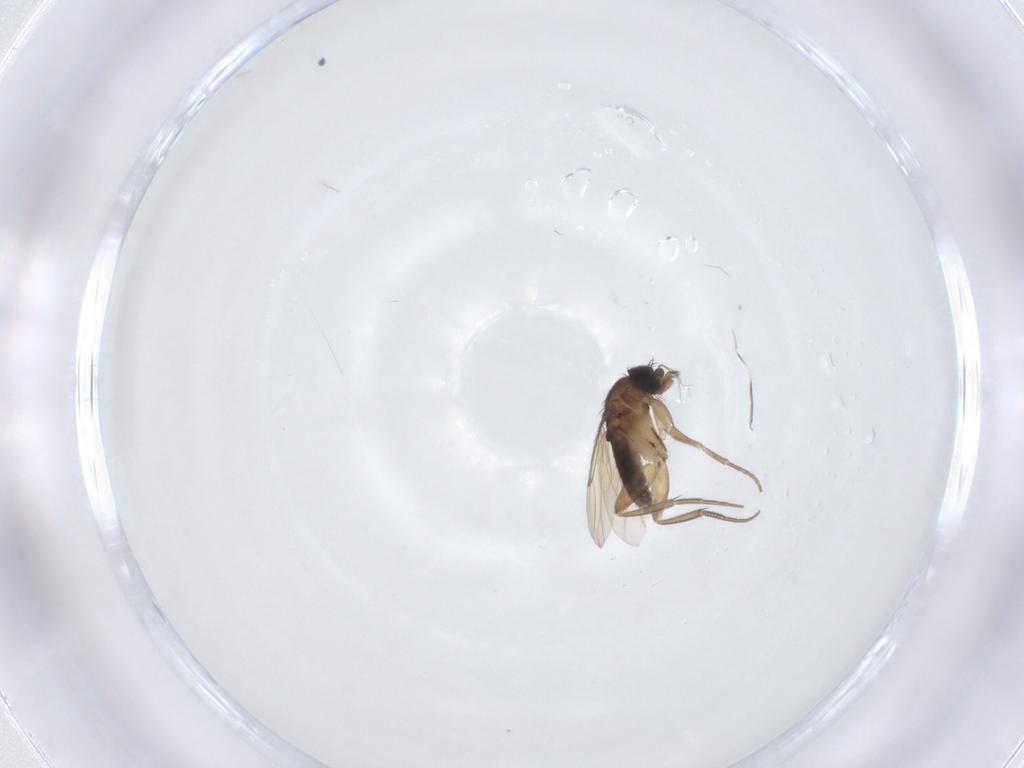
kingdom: Animalia
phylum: Arthropoda
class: Insecta
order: Diptera
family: Phoridae
